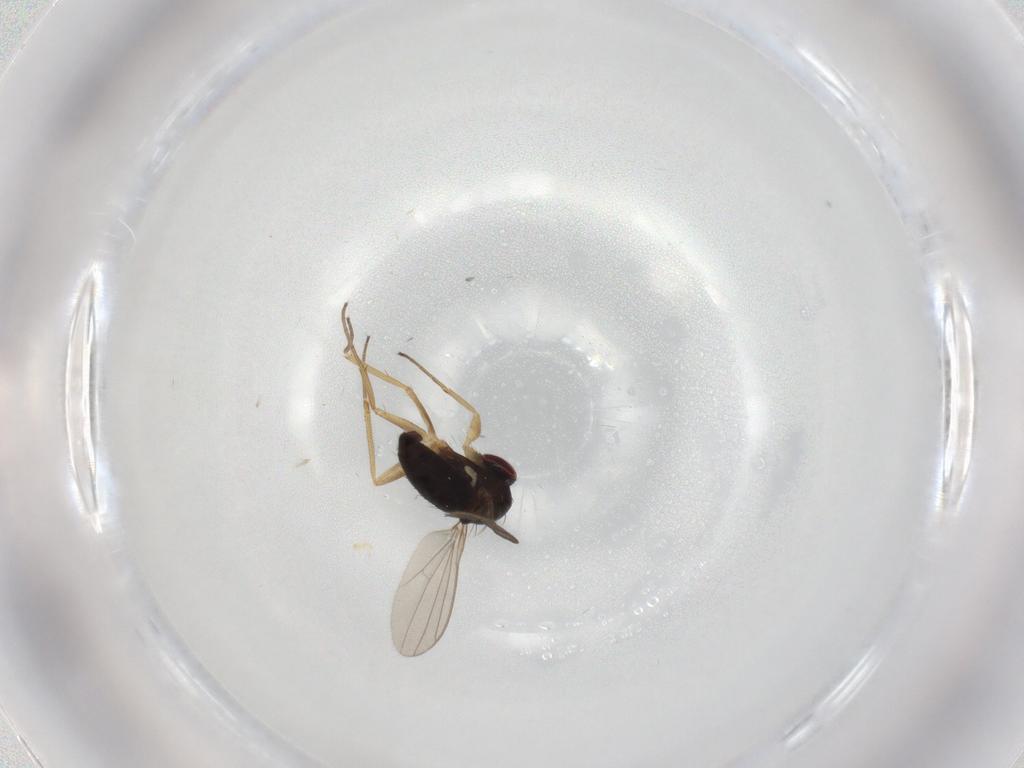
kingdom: Animalia
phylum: Arthropoda
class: Insecta
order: Diptera
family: Dolichopodidae
